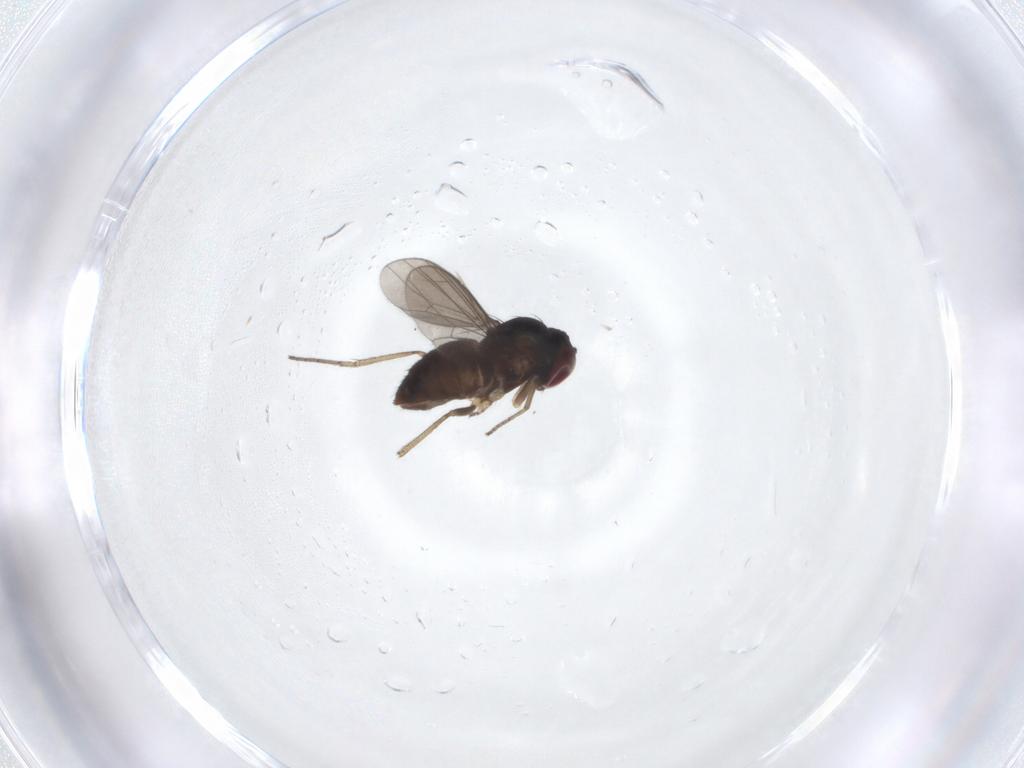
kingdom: Animalia
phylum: Arthropoda
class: Insecta
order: Diptera
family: Dolichopodidae
